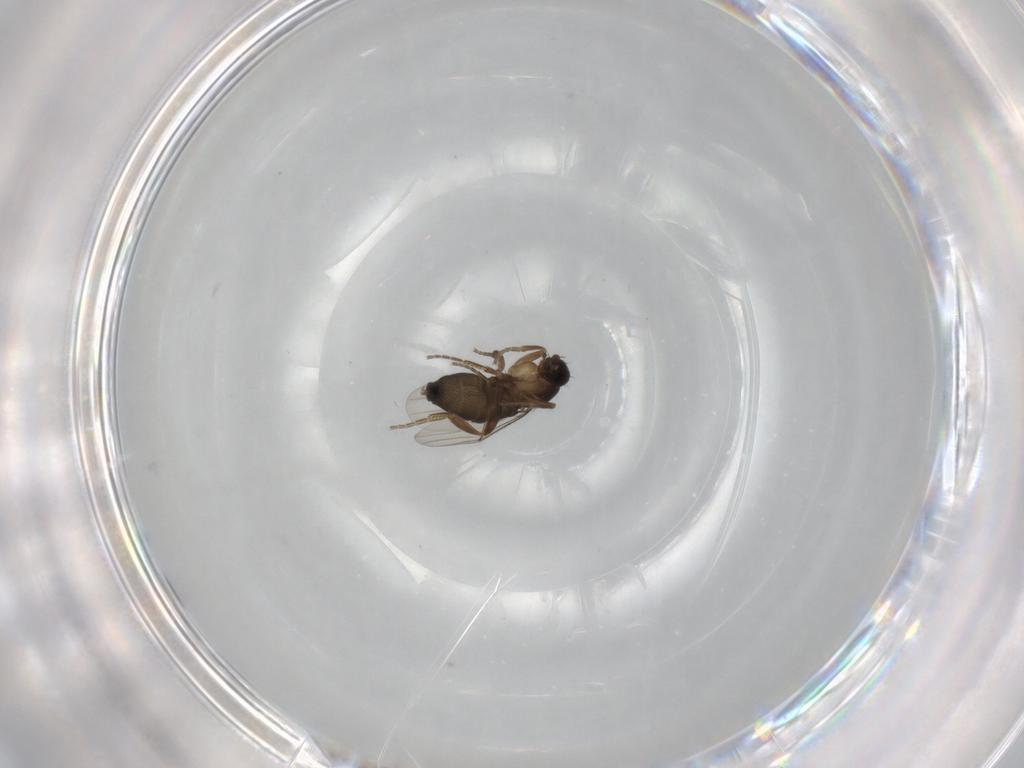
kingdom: Animalia
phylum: Arthropoda
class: Insecta
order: Diptera
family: Phoridae
